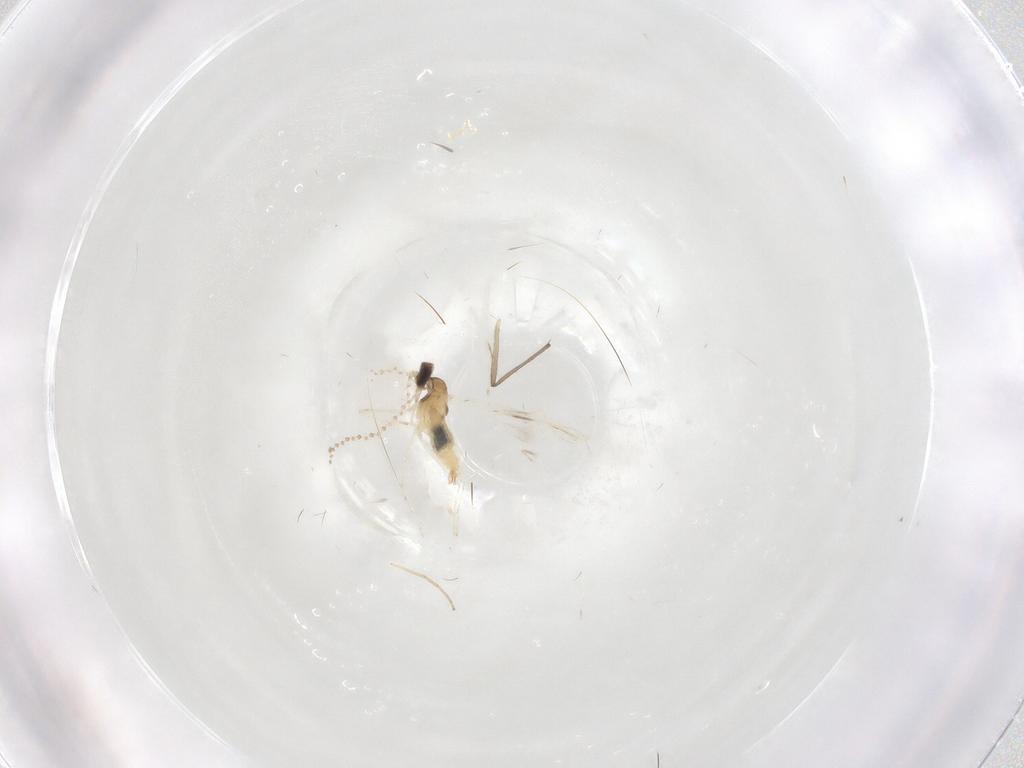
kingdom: Animalia
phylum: Arthropoda
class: Insecta
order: Diptera
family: Chironomidae
